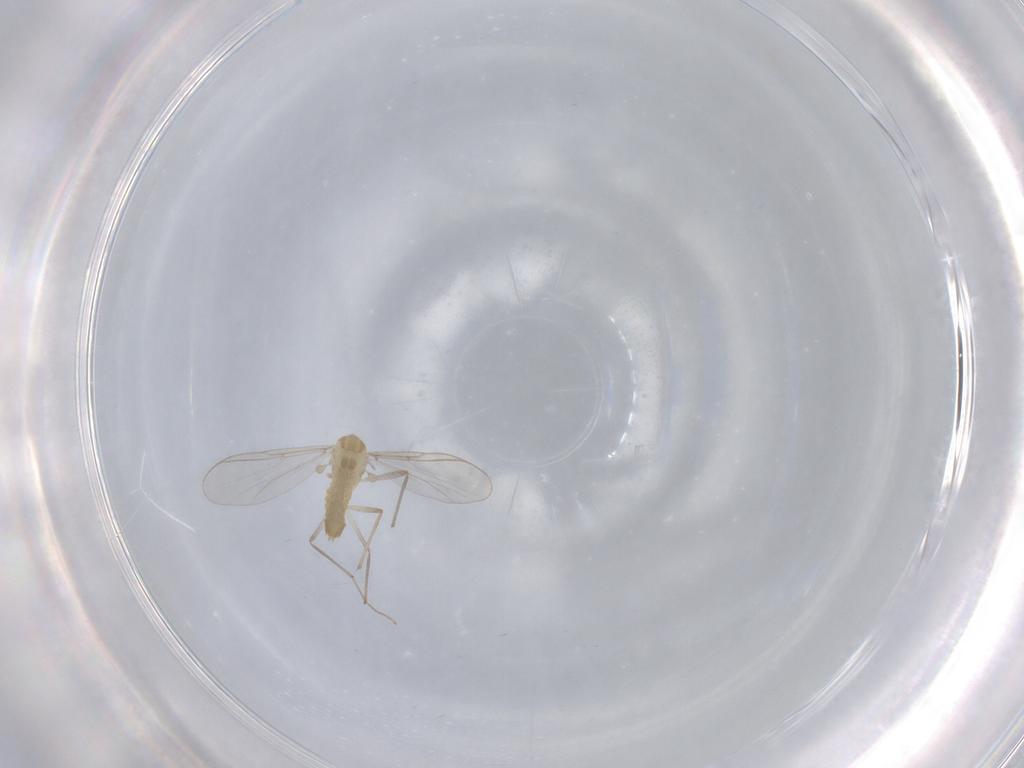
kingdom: Animalia
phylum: Arthropoda
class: Insecta
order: Diptera
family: Chironomidae
